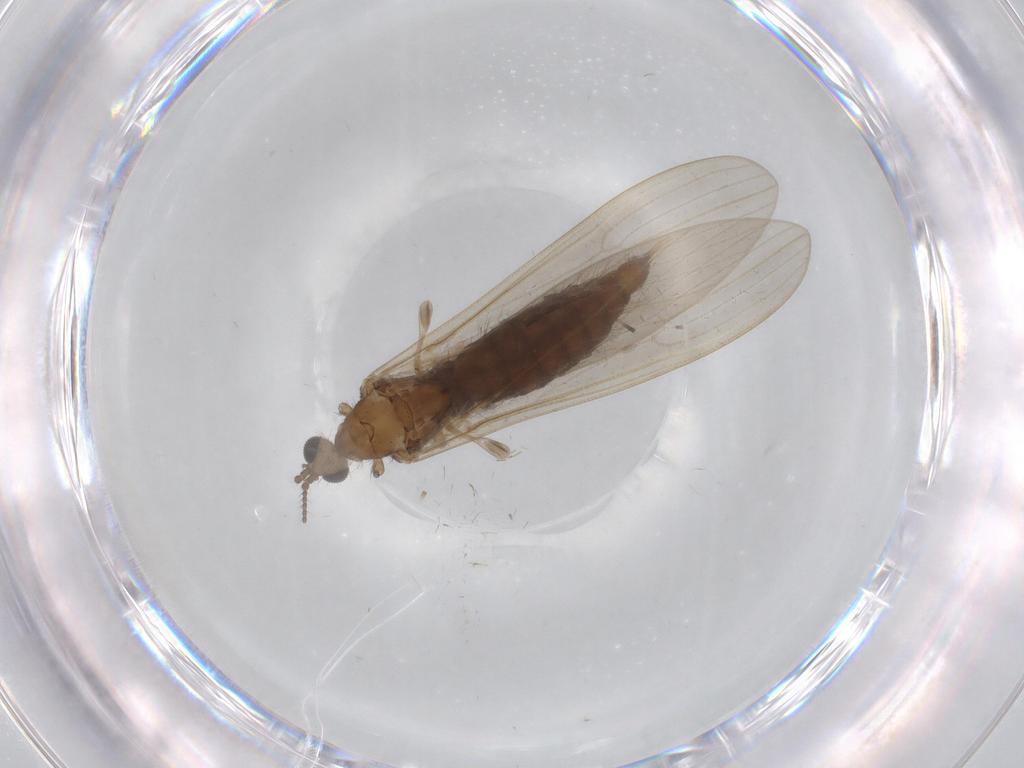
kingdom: Animalia
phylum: Arthropoda
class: Insecta
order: Diptera
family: Limoniidae
